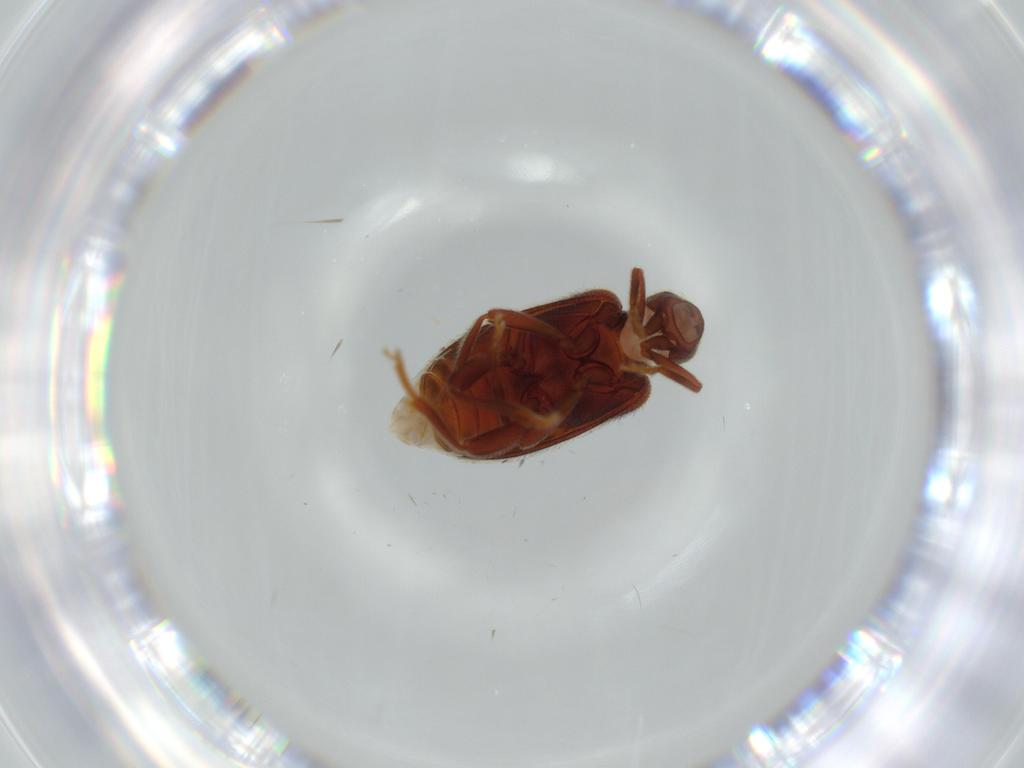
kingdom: Animalia
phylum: Arthropoda
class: Insecta
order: Coleoptera
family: Aderidae
